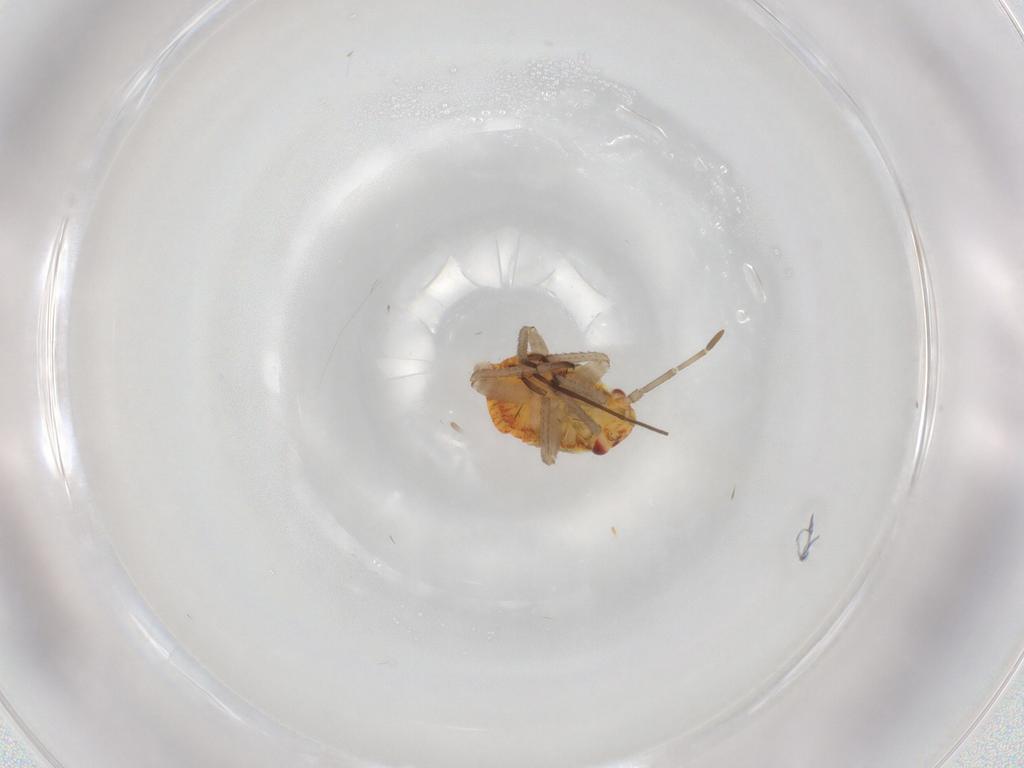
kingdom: Animalia
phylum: Arthropoda
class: Insecta
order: Hemiptera
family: Miridae
